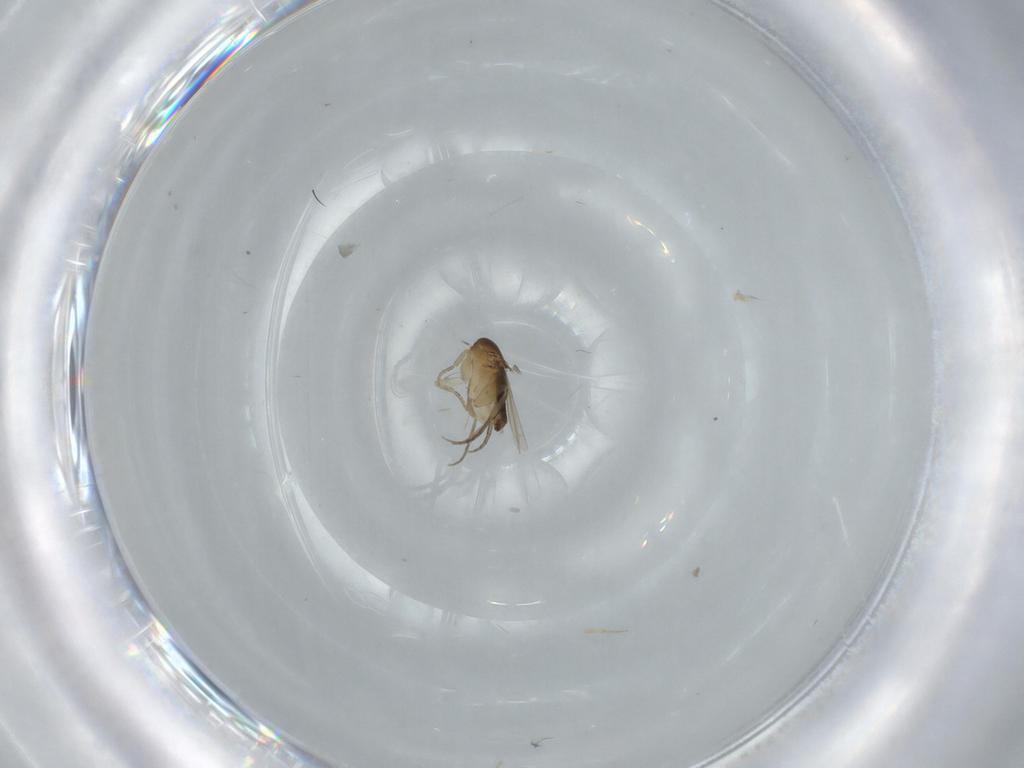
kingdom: Animalia
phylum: Arthropoda
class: Insecta
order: Diptera
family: Phoridae
